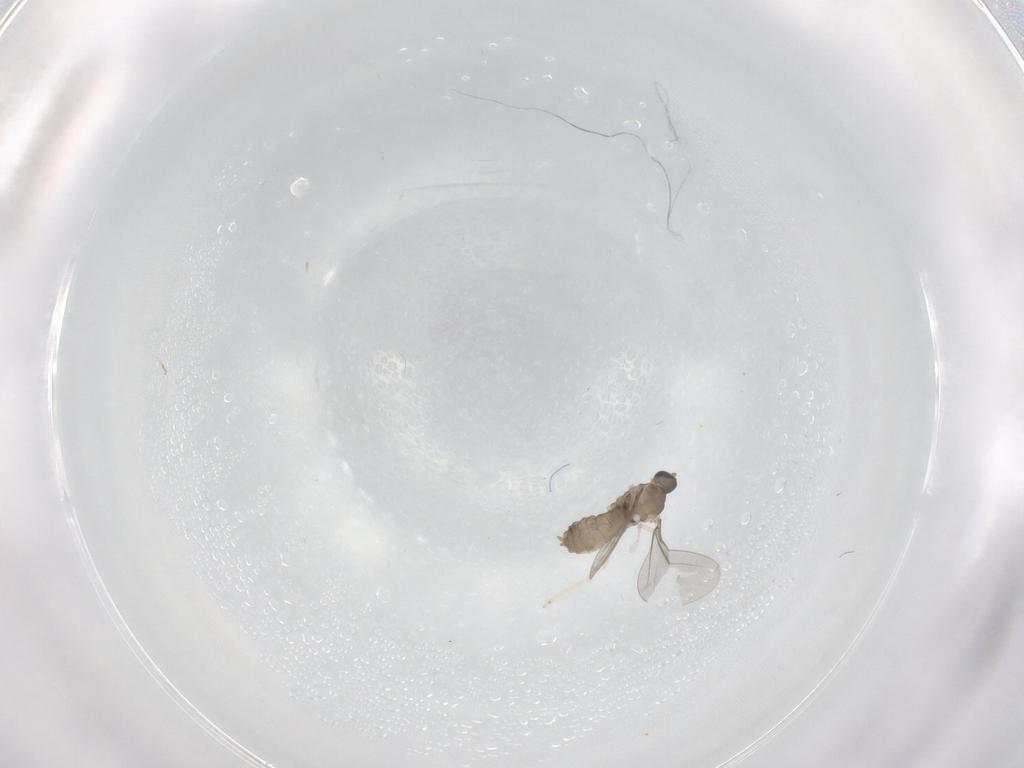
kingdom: Animalia
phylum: Arthropoda
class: Insecta
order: Diptera
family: Phoridae
